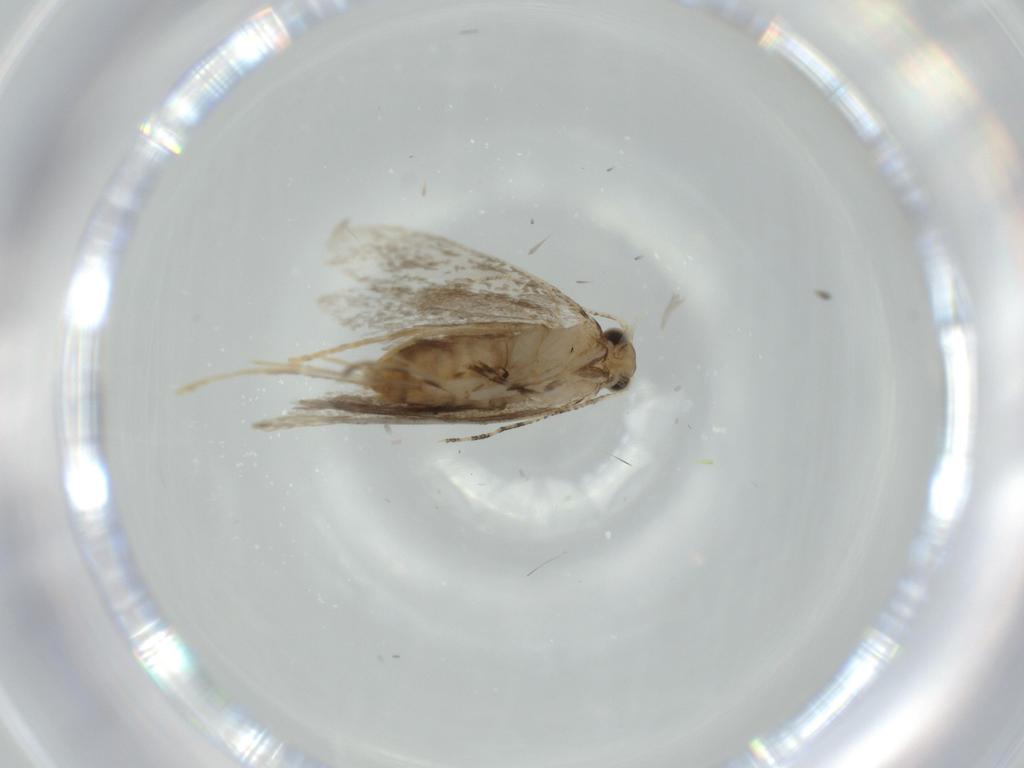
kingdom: Animalia
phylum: Arthropoda
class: Insecta
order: Lepidoptera
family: Tineidae
